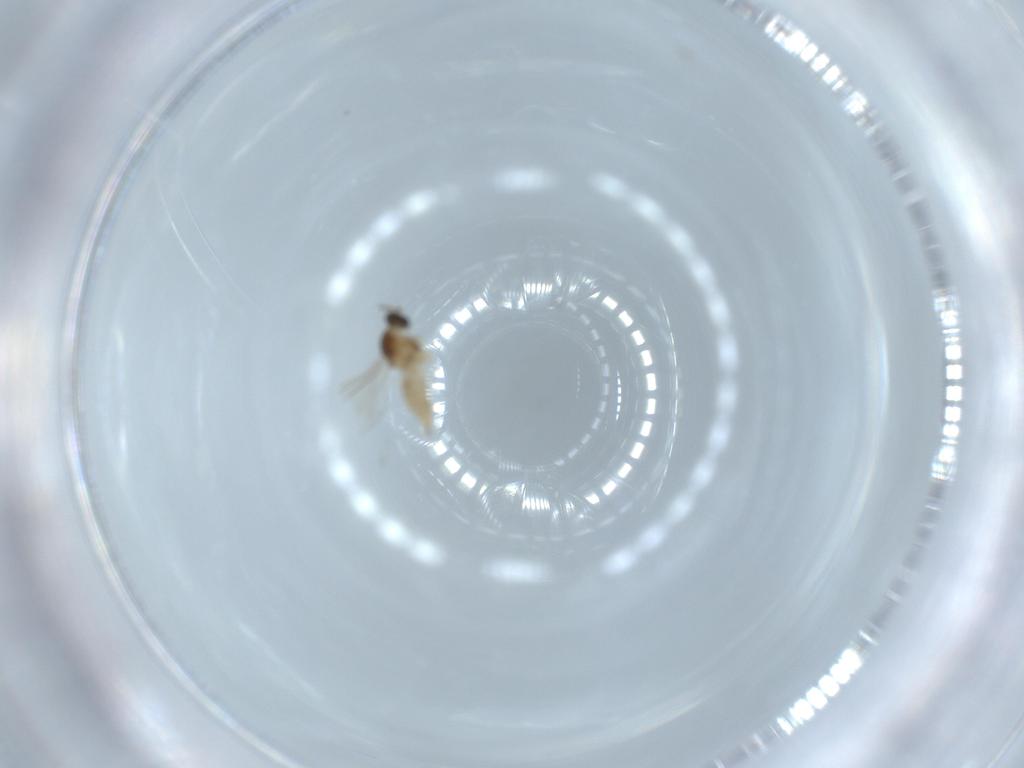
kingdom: Animalia
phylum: Arthropoda
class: Insecta
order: Diptera
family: Cecidomyiidae
